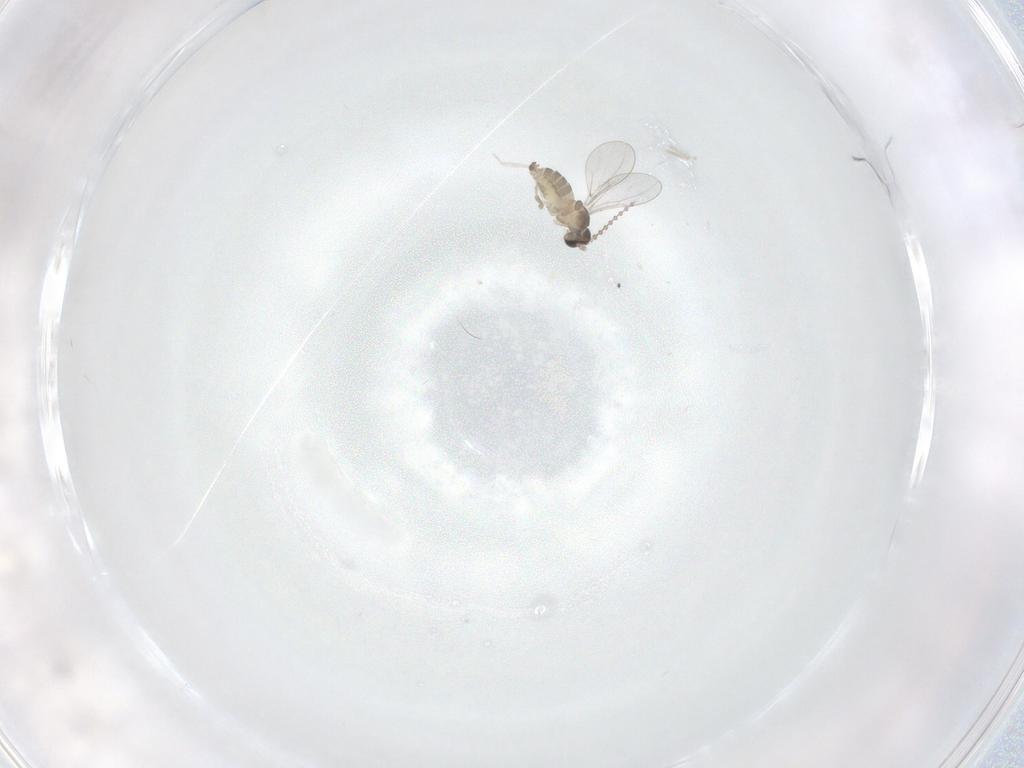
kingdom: Animalia
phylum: Arthropoda
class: Insecta
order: Diptera
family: Cecidomyiidae
